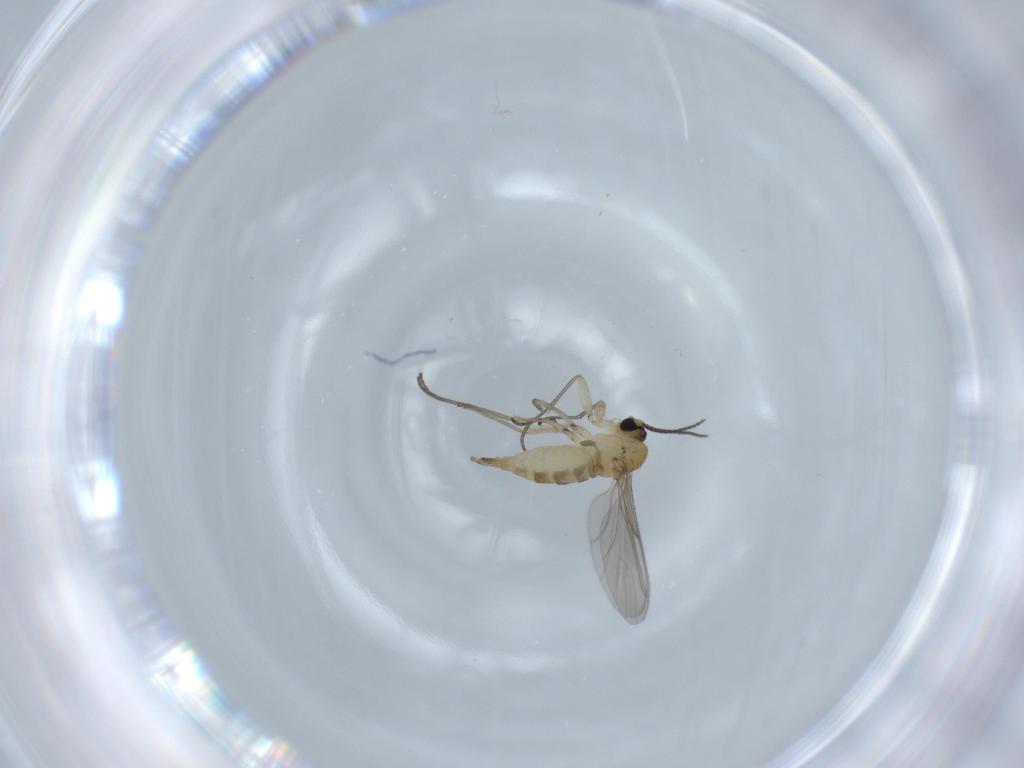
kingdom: Animalia
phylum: Arthropoda
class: Insecta
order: Diptera
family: Sciaridae
